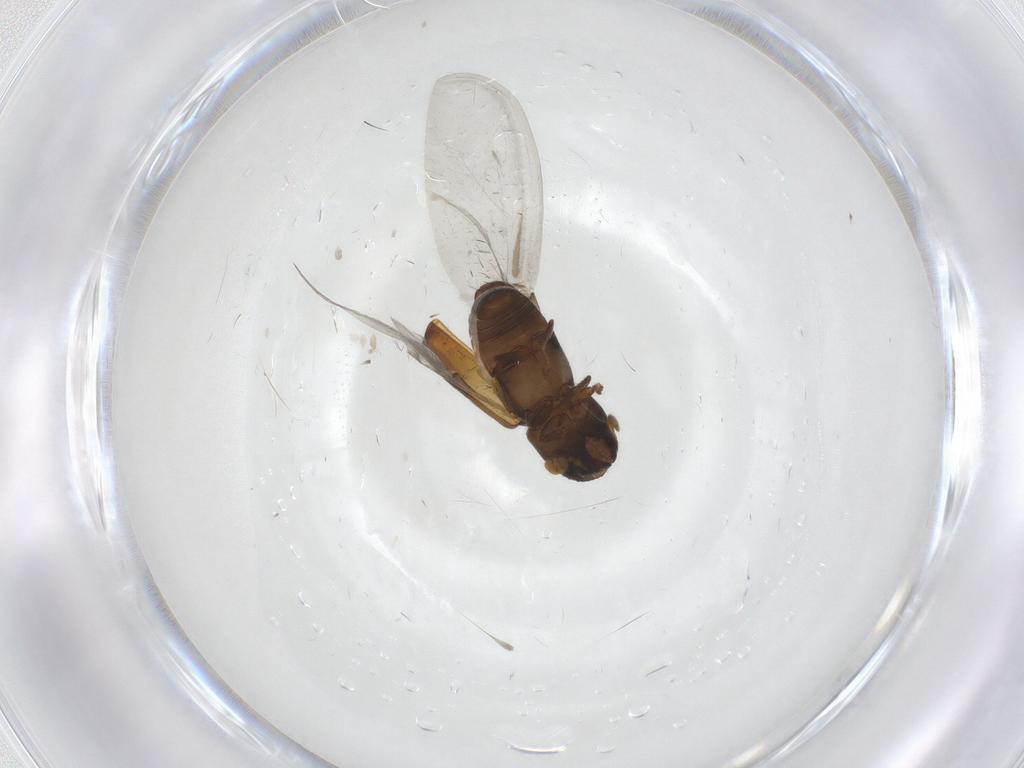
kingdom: Animalia
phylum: Arthropoda
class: Insecta
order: Coleoptera
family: Curculionidae
